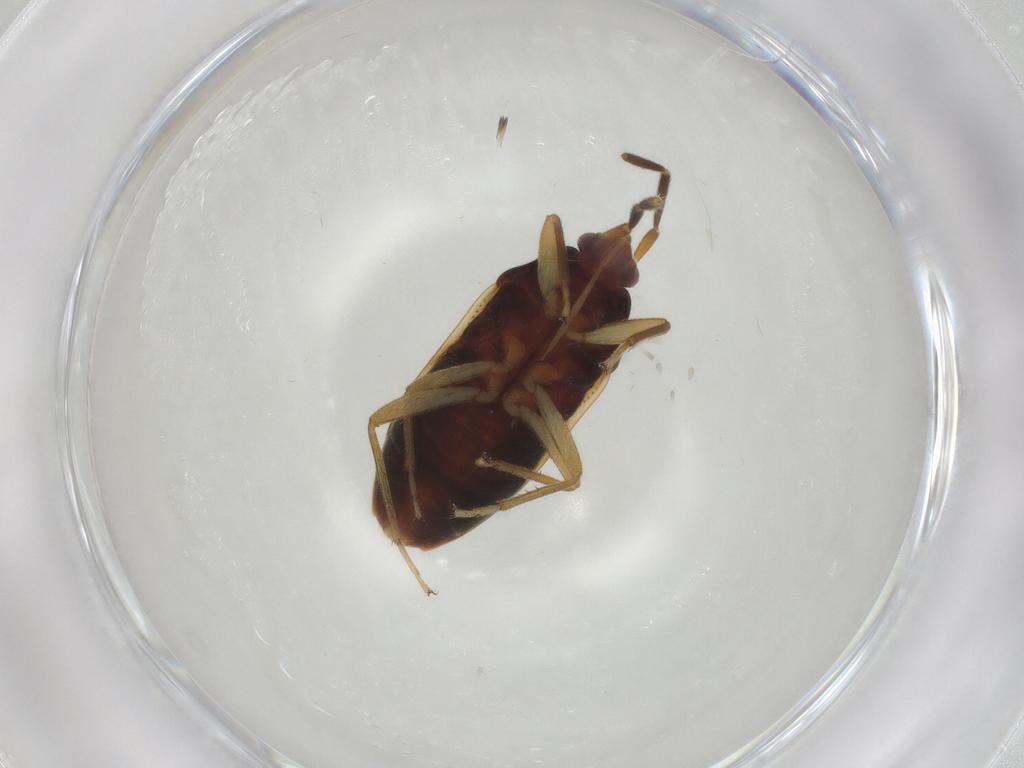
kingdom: Animalia
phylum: Arthropoda
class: Insecta
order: Hemiptera
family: Rhyparochromidae
